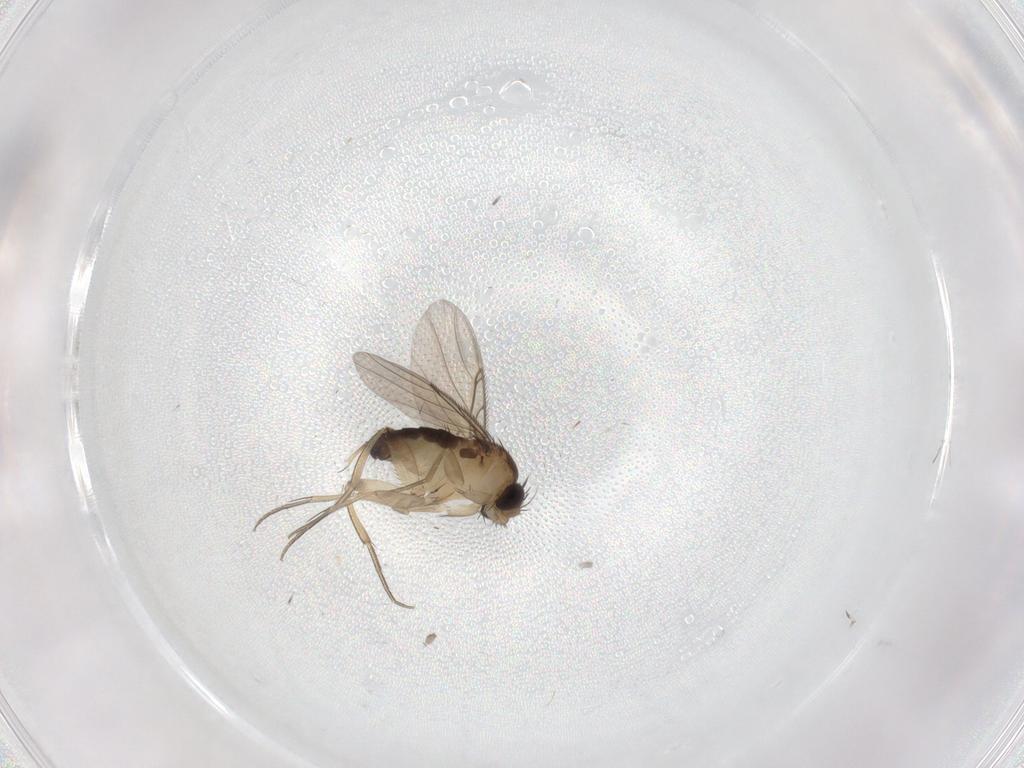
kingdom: Animalia
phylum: Arthropoda
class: Insecta
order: Diptera
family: Phoridae
